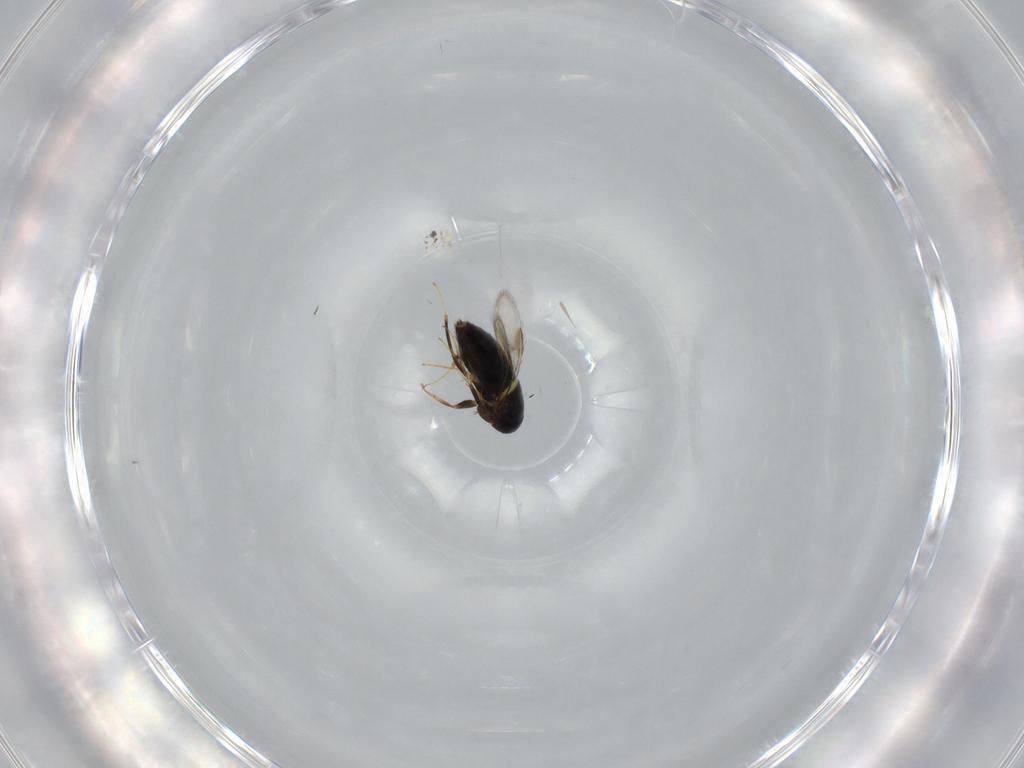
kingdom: Animalia
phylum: Arthropoda
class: Insecta
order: Hymenoptera
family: Signiphoridae
